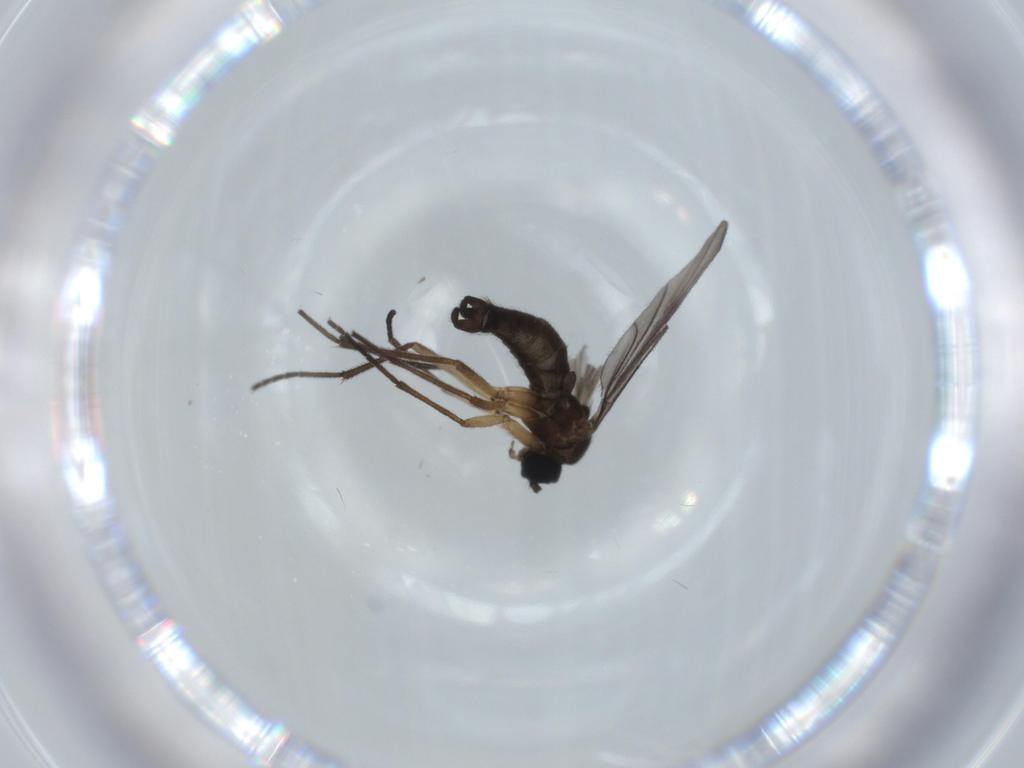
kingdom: Animalia
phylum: Arthropoda
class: Insecta
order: Diptera
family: Sciaridae
